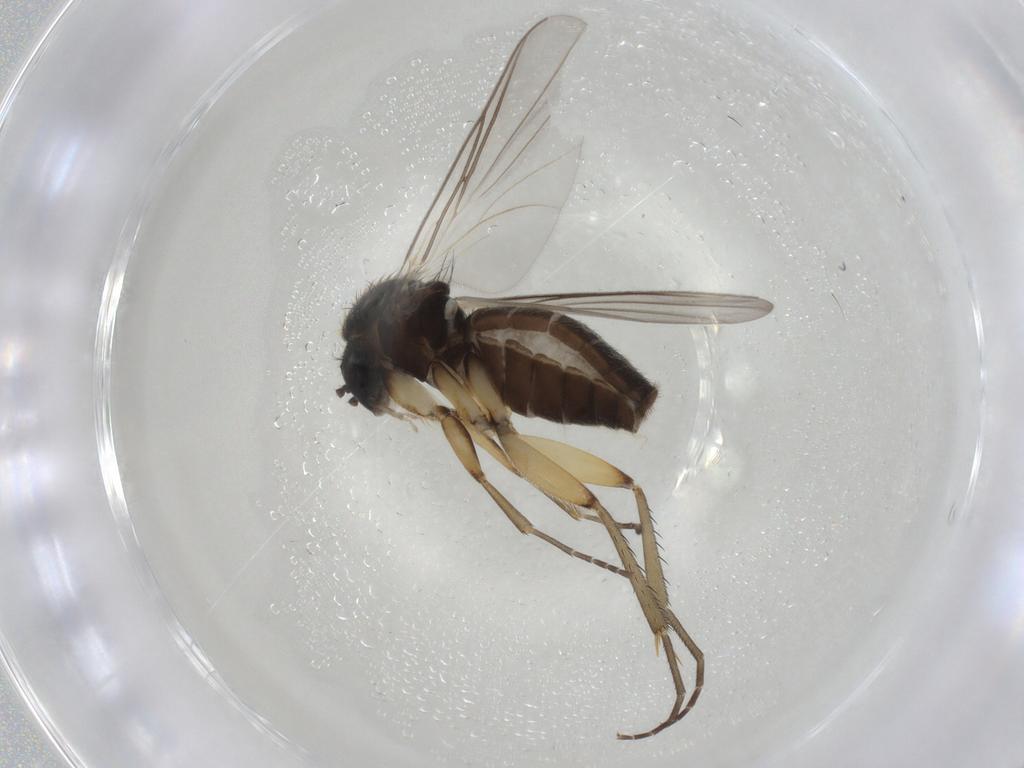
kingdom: Animalia
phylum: Arthropoda
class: Insecta
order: Diptera
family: Mycetophilidae
